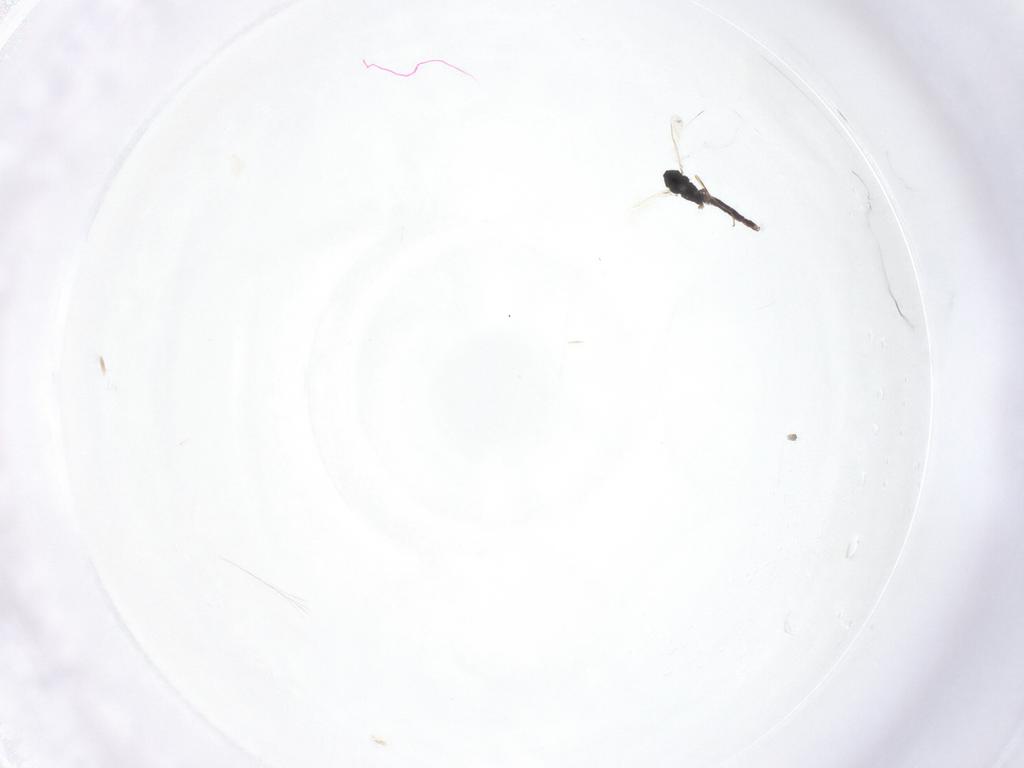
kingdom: Animalia
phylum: Arthropoda
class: Insecta
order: Diptera
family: Chironomidae
